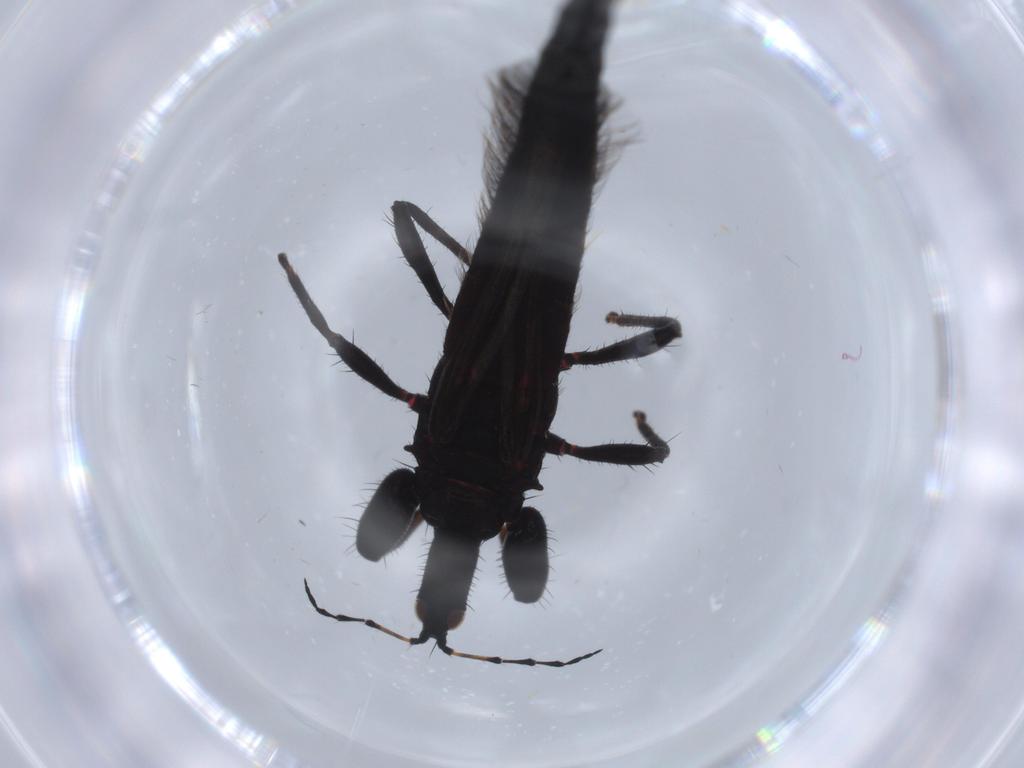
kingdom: Animalia
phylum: Arthropoda
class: Insecta
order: Thysanoptera
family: Phlaeothripidae
